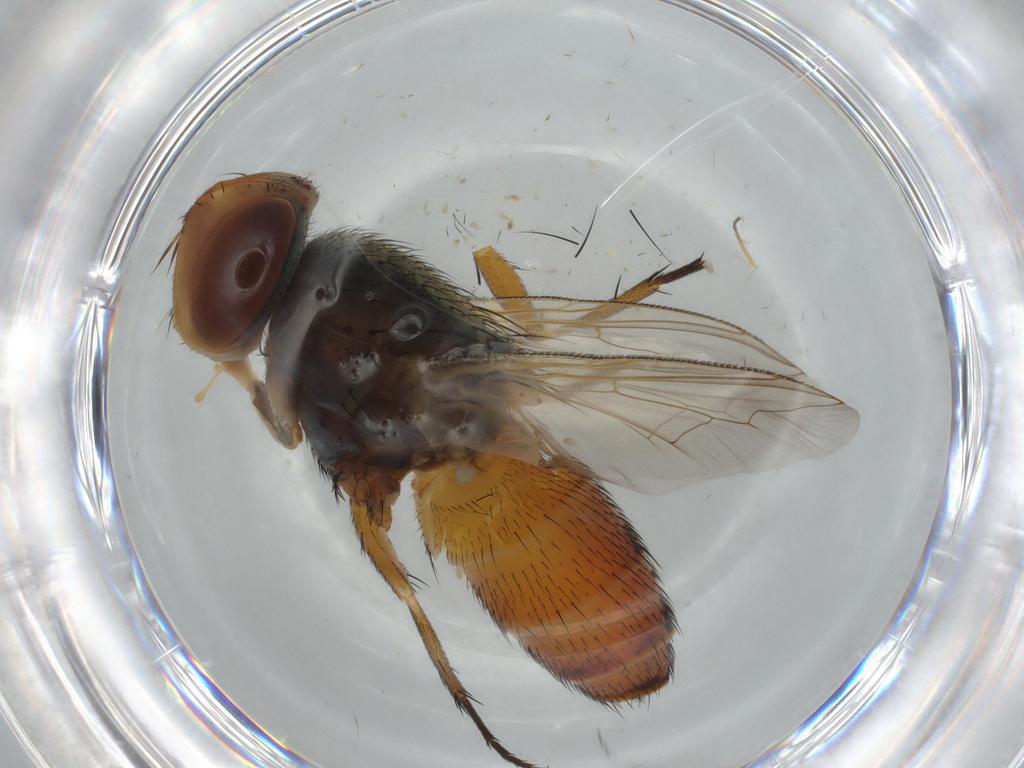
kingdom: Animalia
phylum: Arthropoda
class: Insecta
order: Diptera
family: Sarcophagidae
